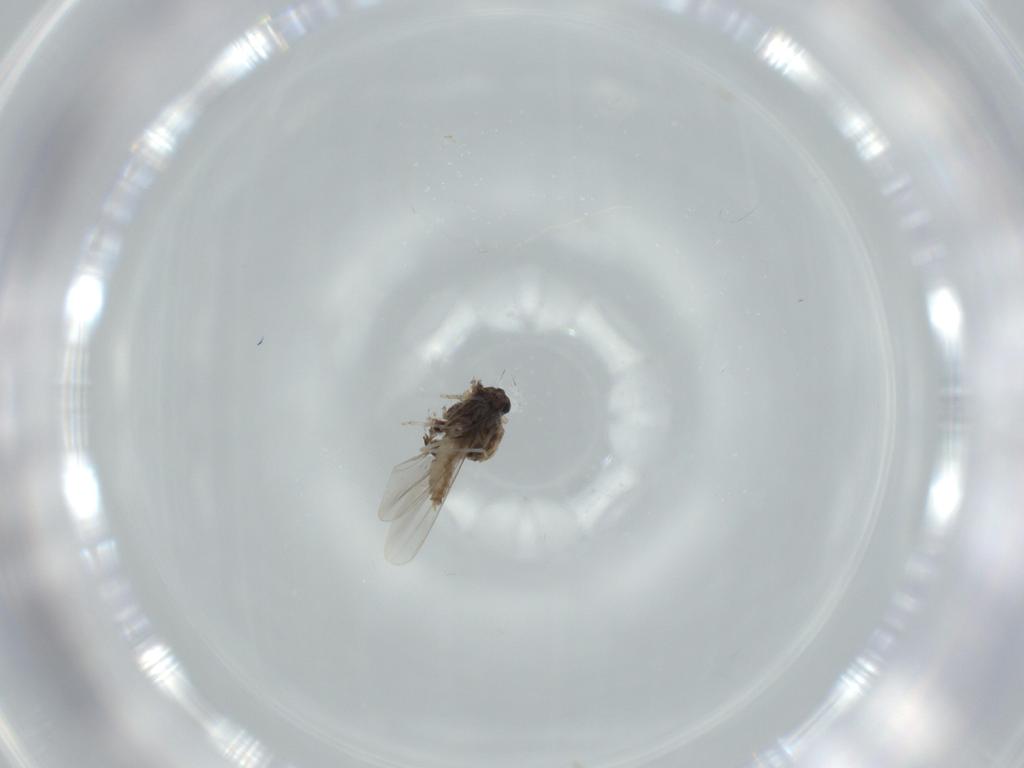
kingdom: Animalia
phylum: Arthropoda
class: Insecta
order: Diptera
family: Cecidomyiidae
